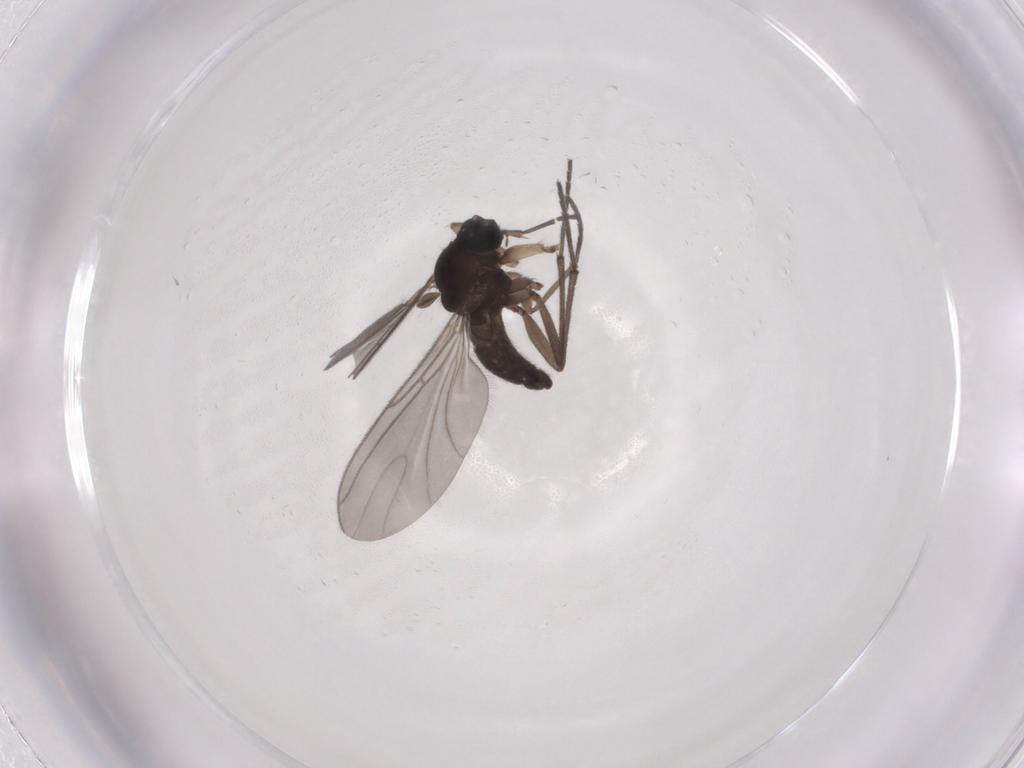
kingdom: Animalia
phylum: Arthropoda
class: Insecta
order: Diptera
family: Sciaridae
